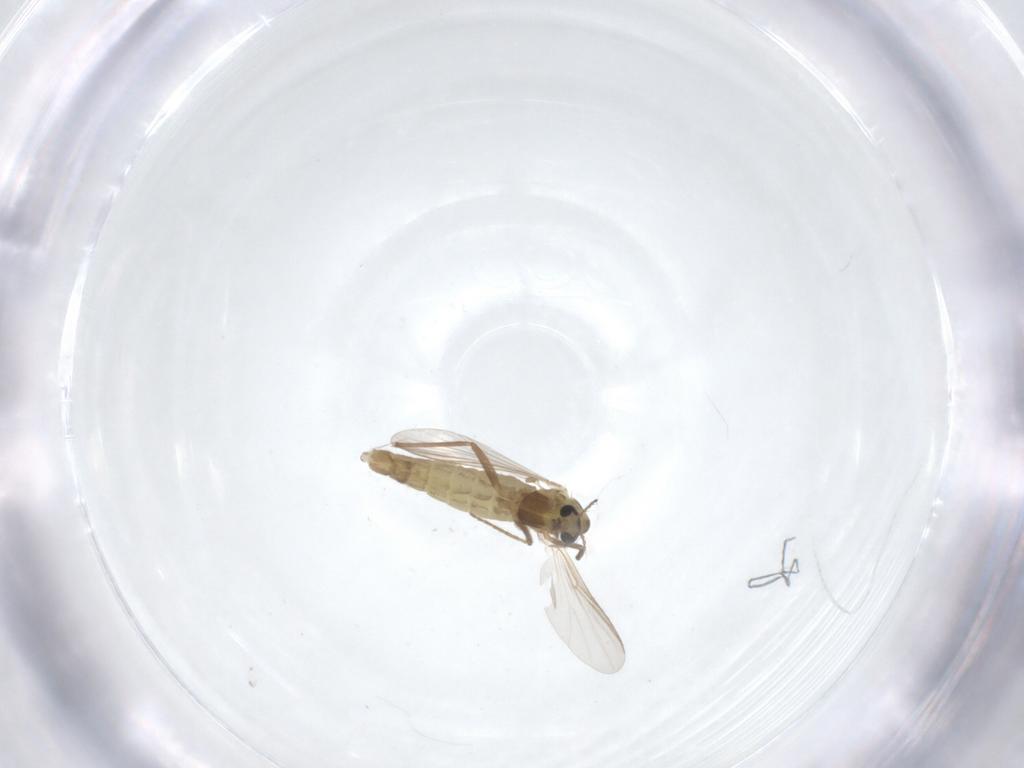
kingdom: Animalia
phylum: Arthropoda
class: Insecta
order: Diptera
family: Phoridae
